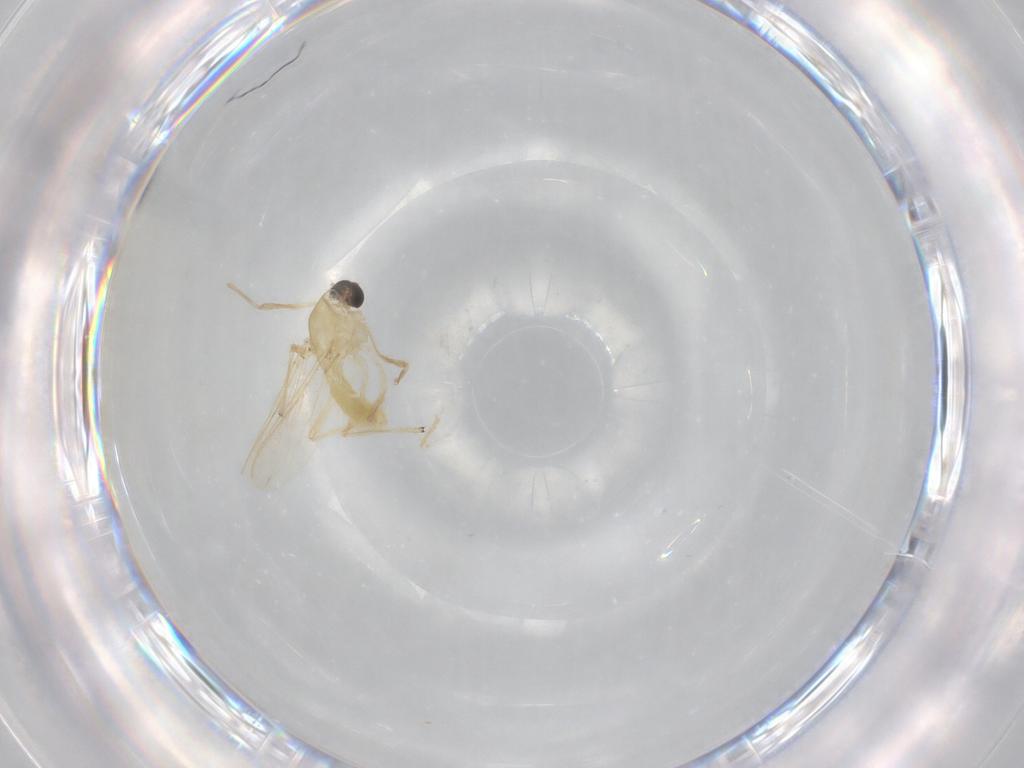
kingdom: Animalia
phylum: Arthropoda
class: Insecta
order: Diptera
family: Chironomidae
